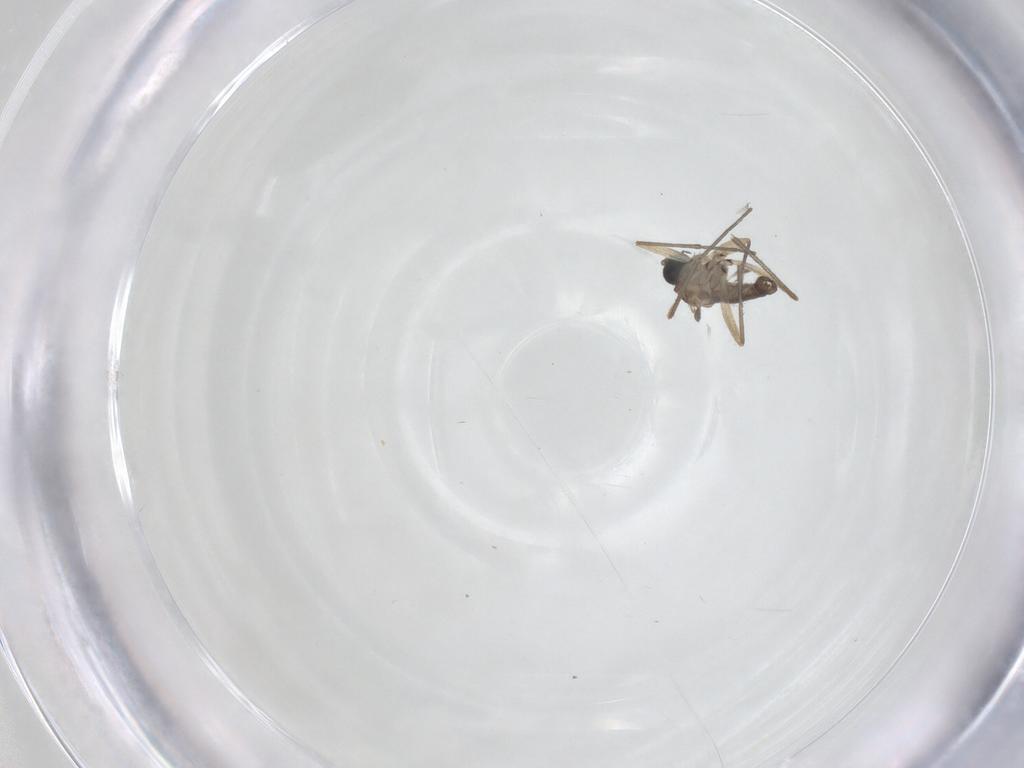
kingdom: Animalia
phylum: Arthropoda
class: Insecta
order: Diptera
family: Sciaridae
